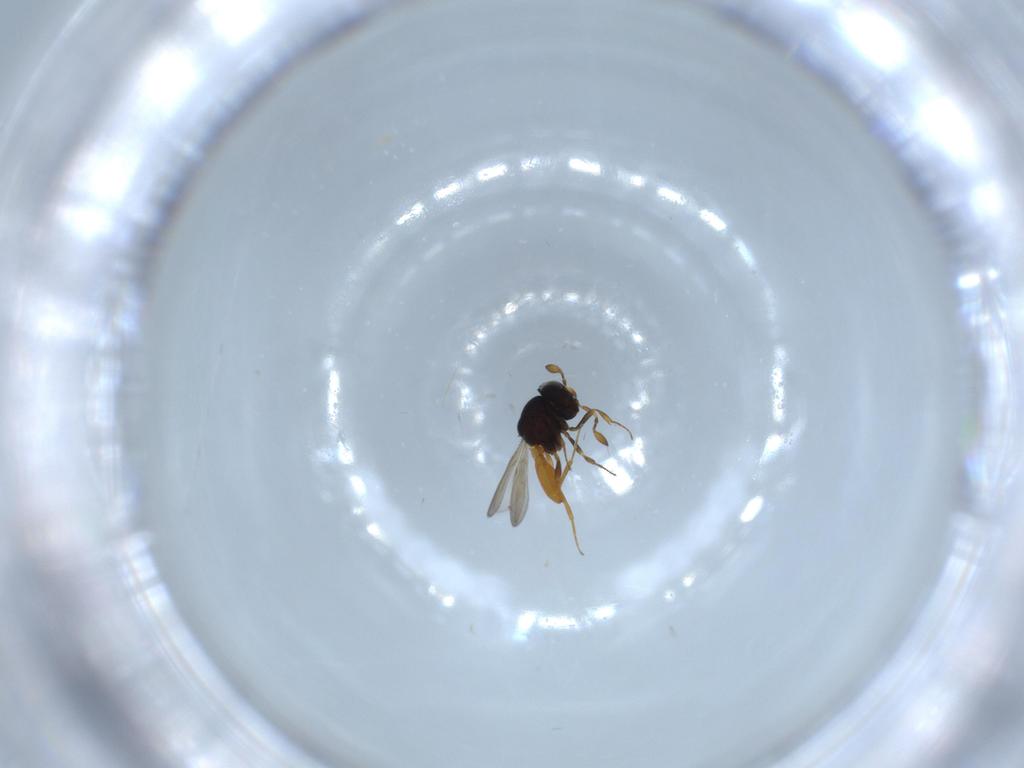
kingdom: Animalia
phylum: Arthropoda
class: Insecta
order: Hymenoptera
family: Scelionidae
